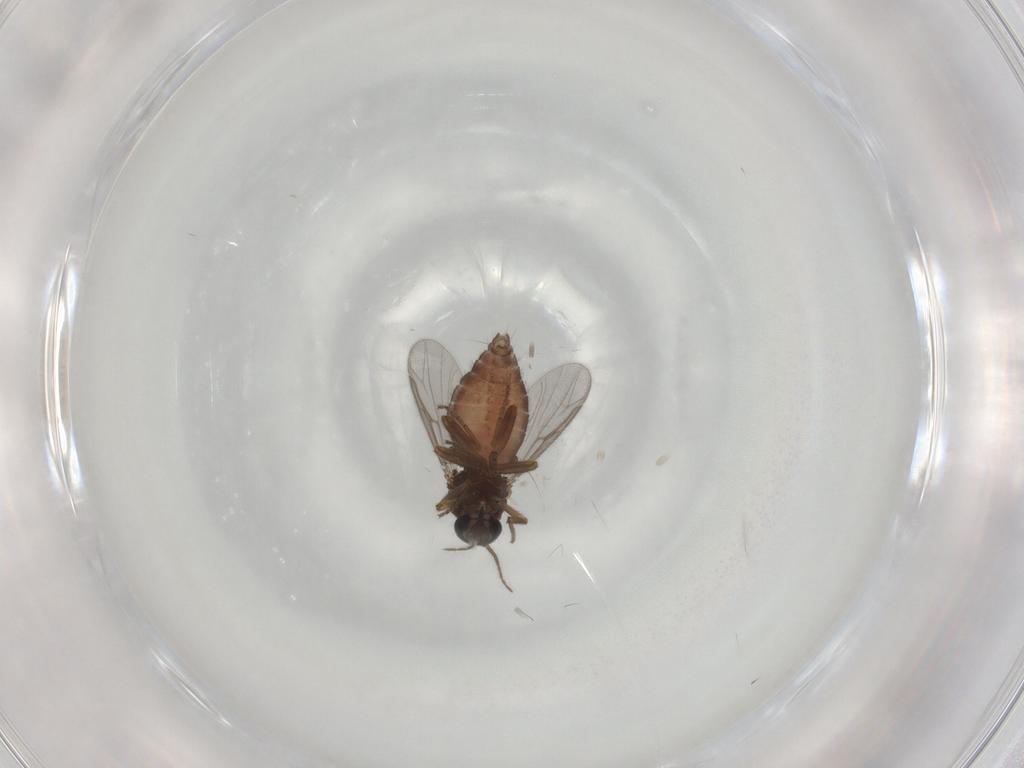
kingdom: Animalia
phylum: Arthropoda
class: Insecta
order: Diptera
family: Ceratopogonidae
